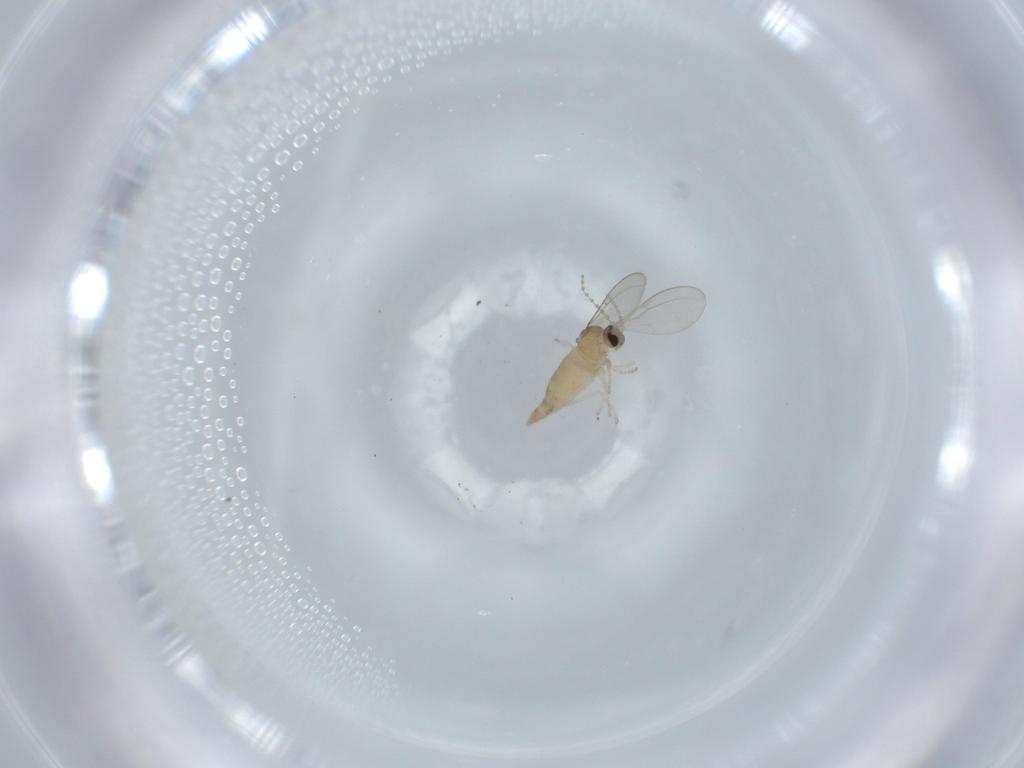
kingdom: Animalia
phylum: Arthropoda
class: Insecta
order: Diptera
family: Cecidomyiidae
